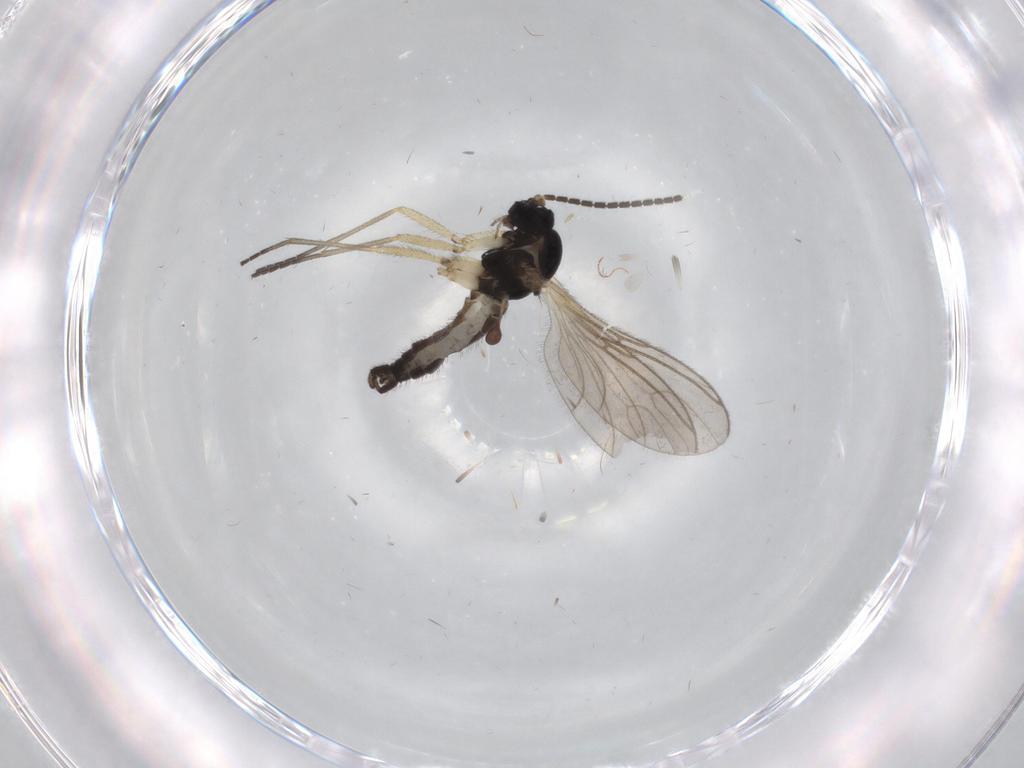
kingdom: Animalia
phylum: Arthropoda
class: Insecta
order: Diptera
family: Sciaridae
